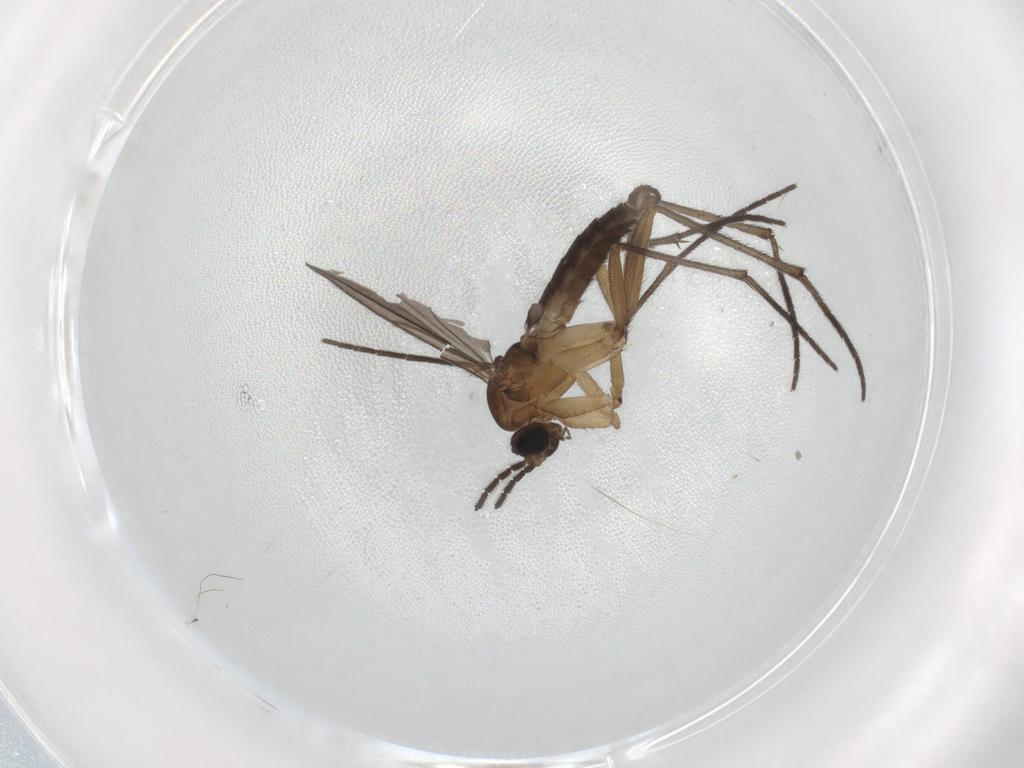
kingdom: Animalia
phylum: Arthropoda
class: Insecta
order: Diptera
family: Sciaridae
